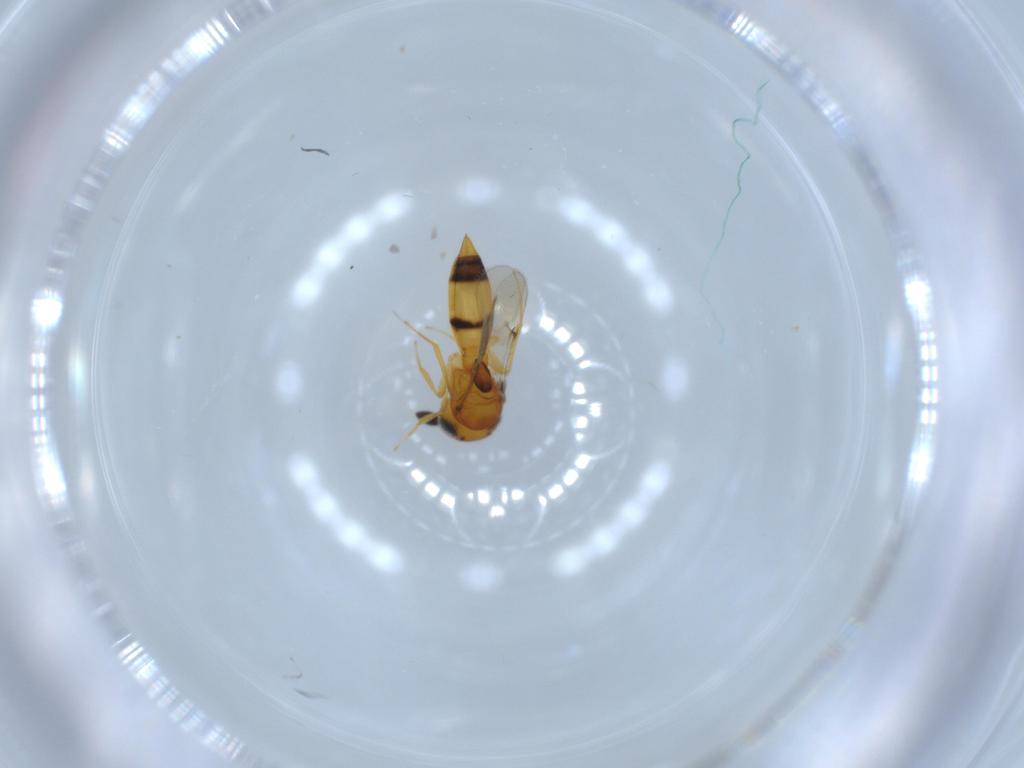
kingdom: Animalia
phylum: Arthropoda
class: Insecta
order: Hymenoptera
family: Scelionidae
